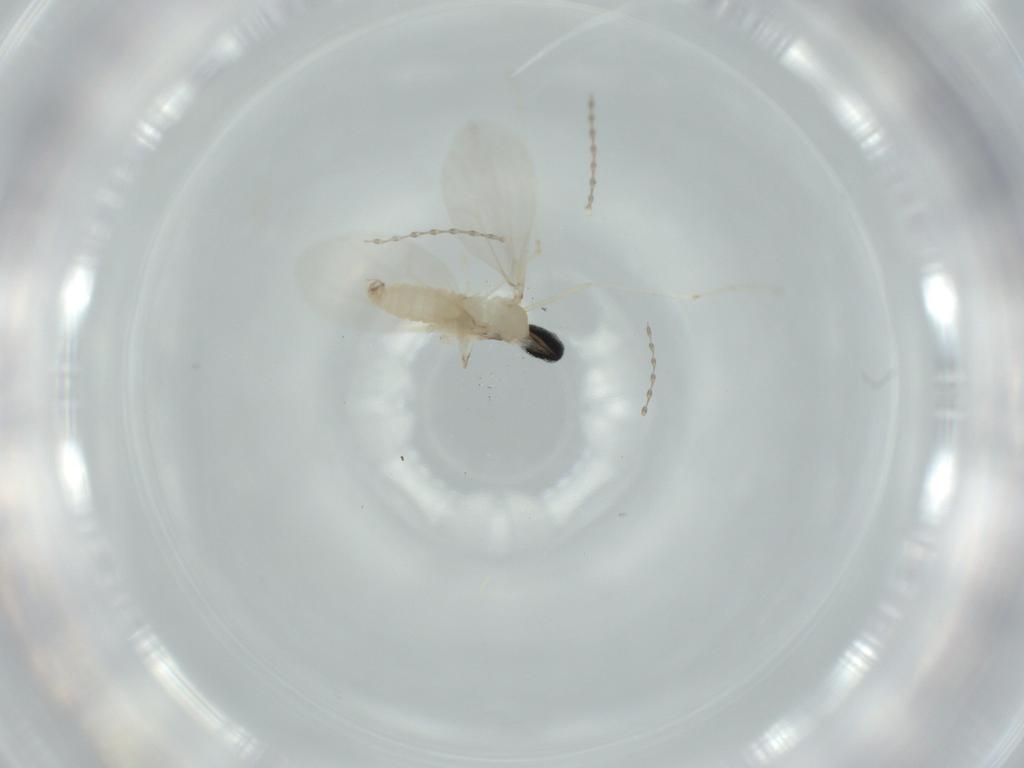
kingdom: Animalia
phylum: Arthropoda
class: Insecta
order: Diptera
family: Cecidomyiidae
